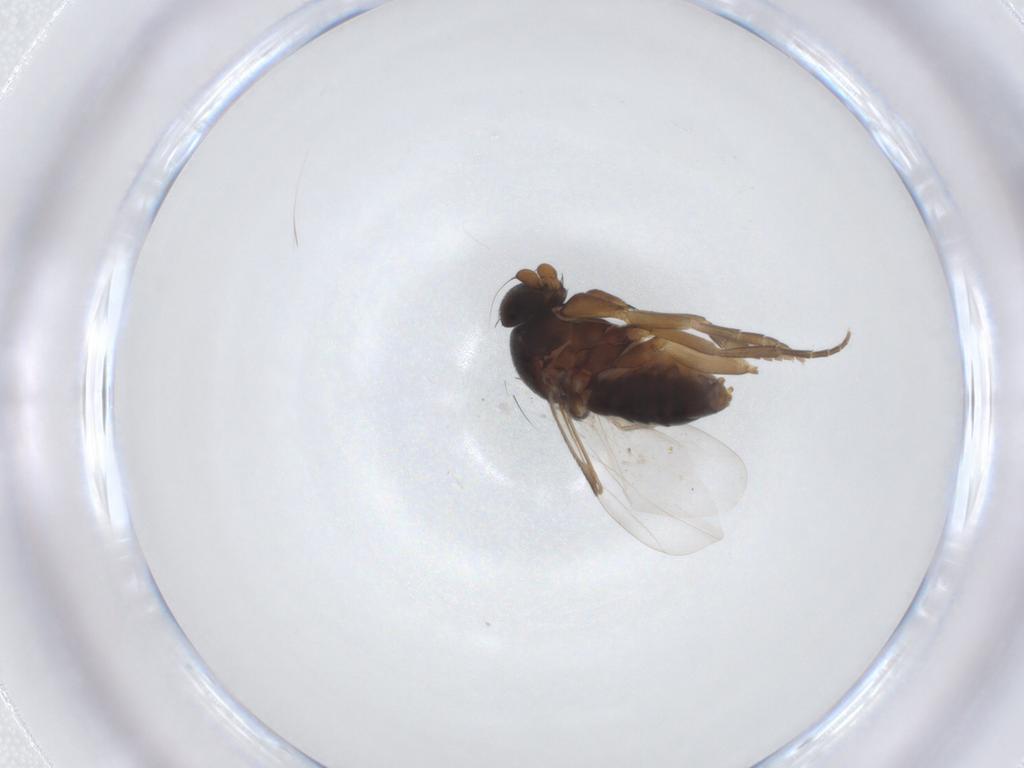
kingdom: Animalia
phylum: Arthropoda
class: Insecta
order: Diptera
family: Phoridae
